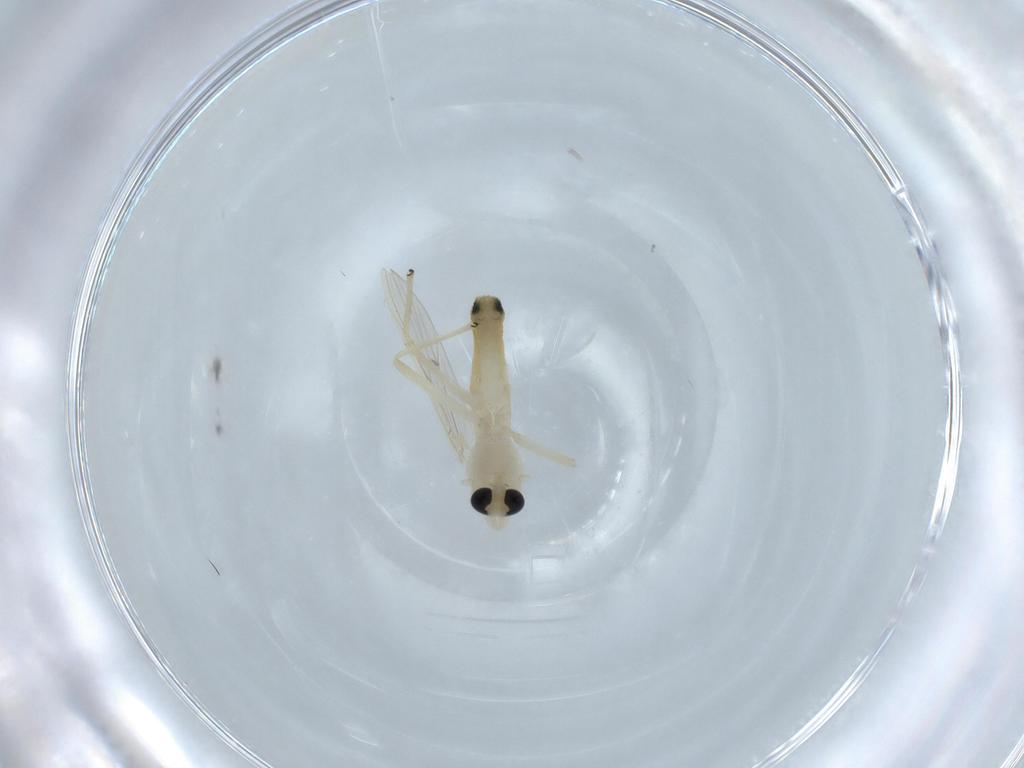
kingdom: Animalia
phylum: Arthropoda
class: Insecta
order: Diptera
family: Chironomidae
